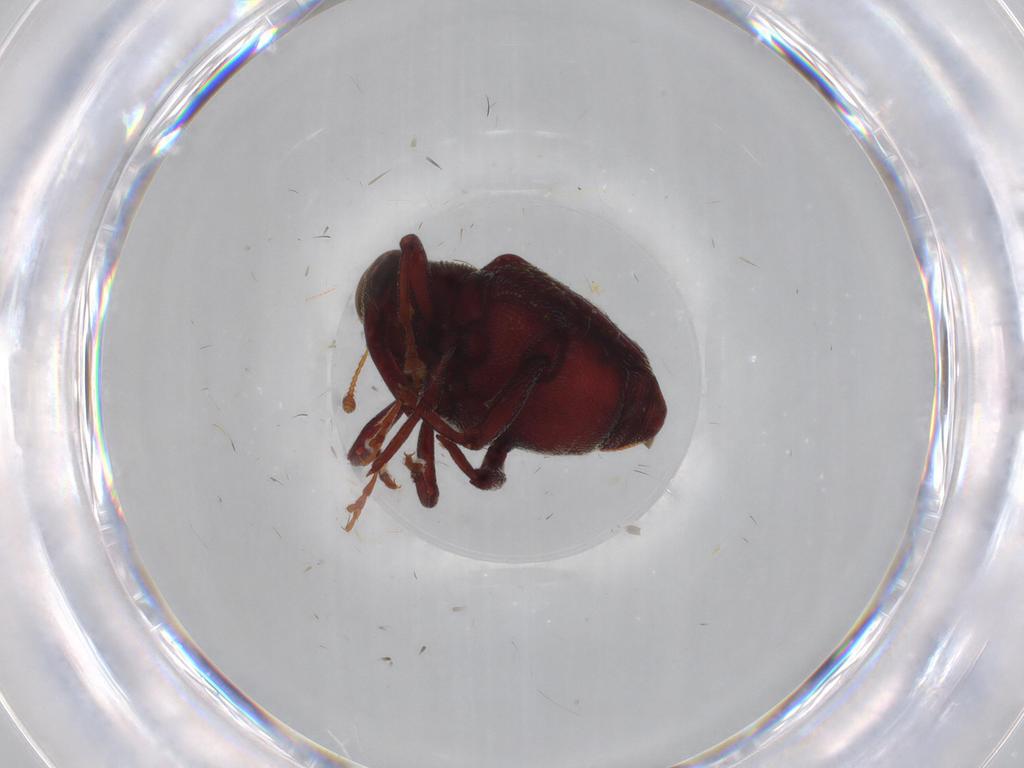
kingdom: Animalia
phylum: Arthropoda
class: Insecta
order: Coleoptera
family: Curculionidae
